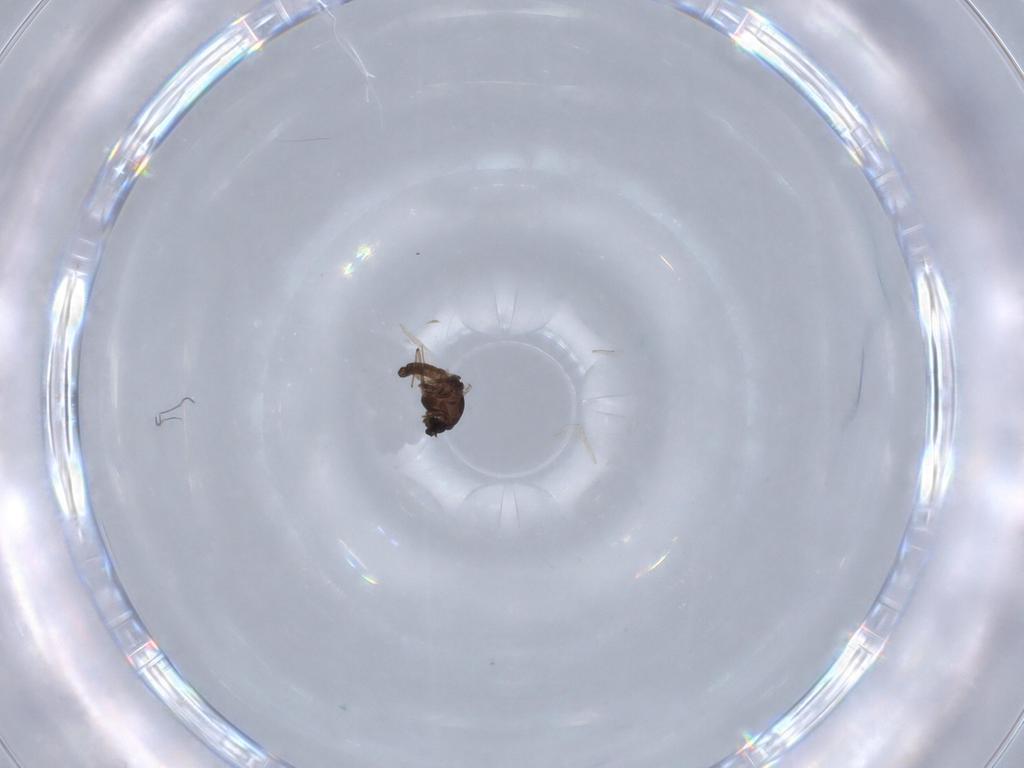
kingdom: Animalia
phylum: Arthropoda
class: Insecta
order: Diptera
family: Chironomidae
